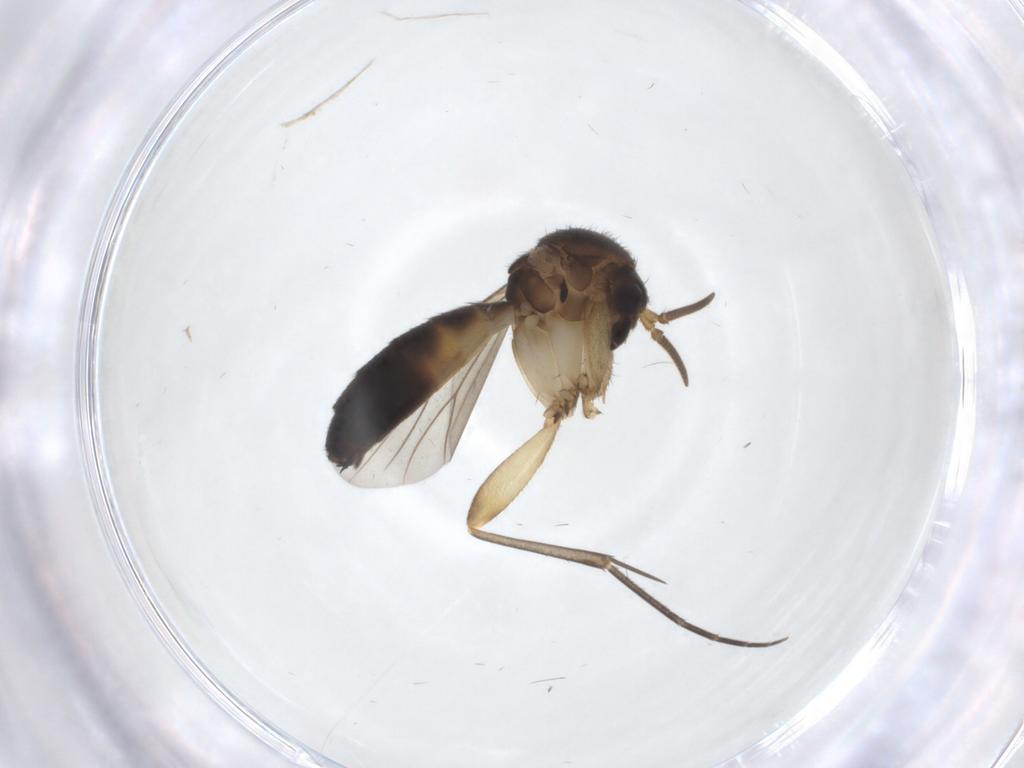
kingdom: Animalia
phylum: Arthropoda
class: Insecta
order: Diptera
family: Mycetophilidae
